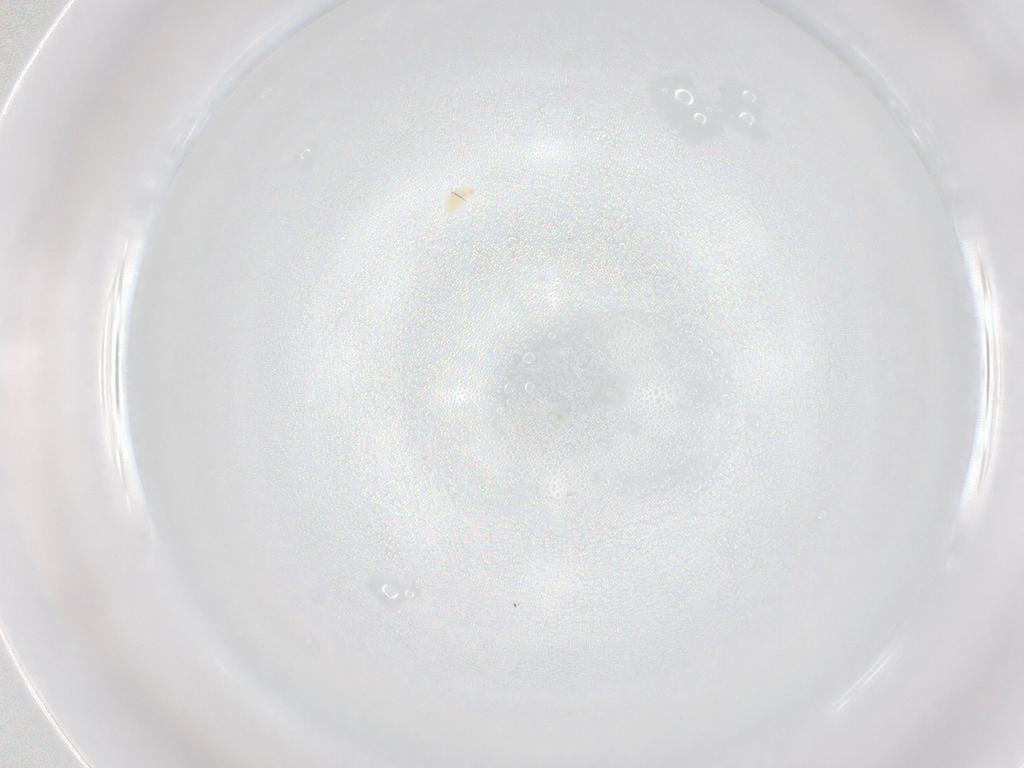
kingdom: Animalia
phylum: Arthropoda
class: Arachnida
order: Trombidiformes
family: Tetranychidae
